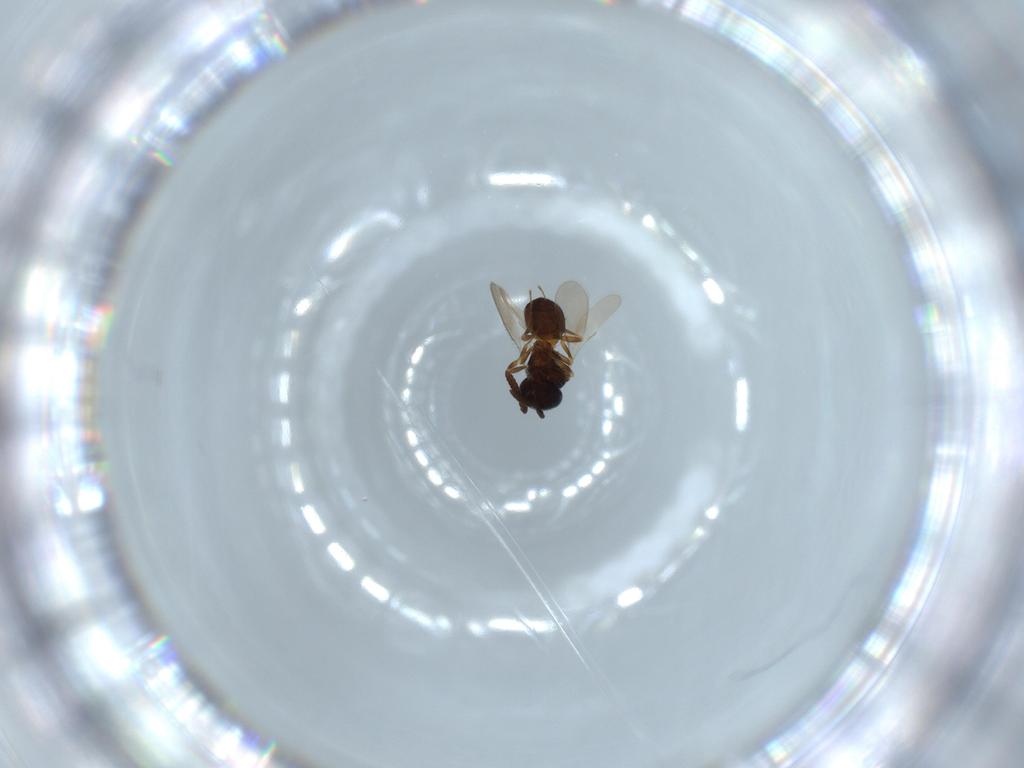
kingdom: Animalia
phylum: Arthropoda
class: Insecta
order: Hymenoptera
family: Scelionidae
